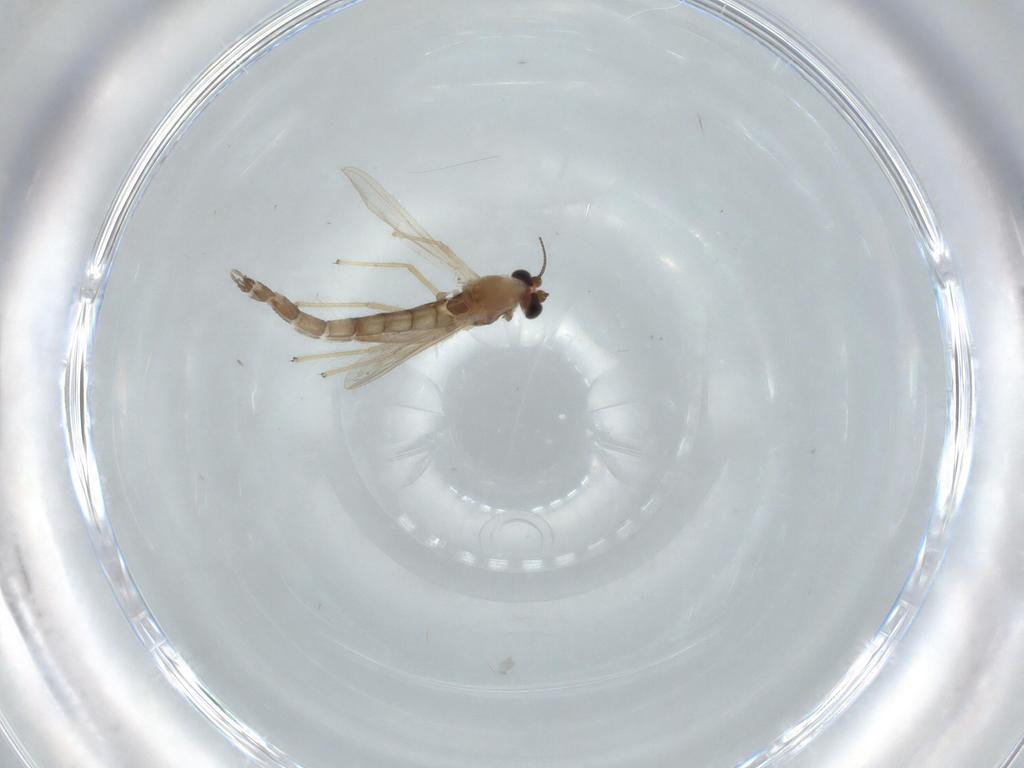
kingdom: Animalia
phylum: Arthropoda
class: Insecta
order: Diptera
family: Chironomidae
